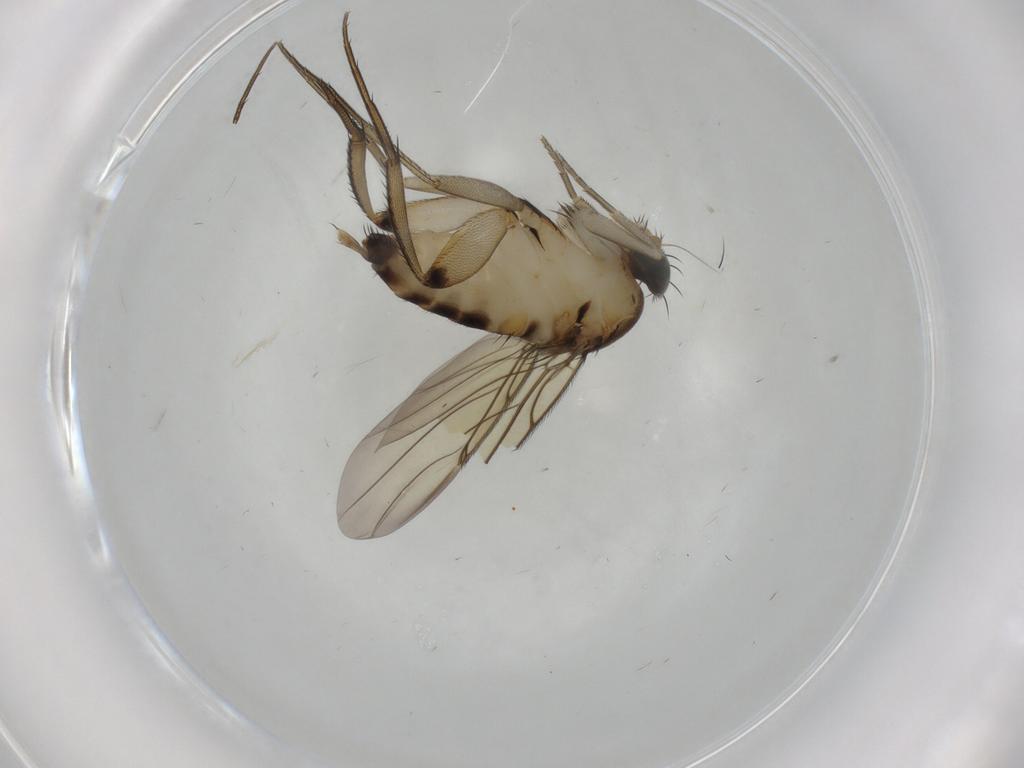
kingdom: Animalia
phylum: Arthropoda
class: Insecta
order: Diptera
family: Phoridae
